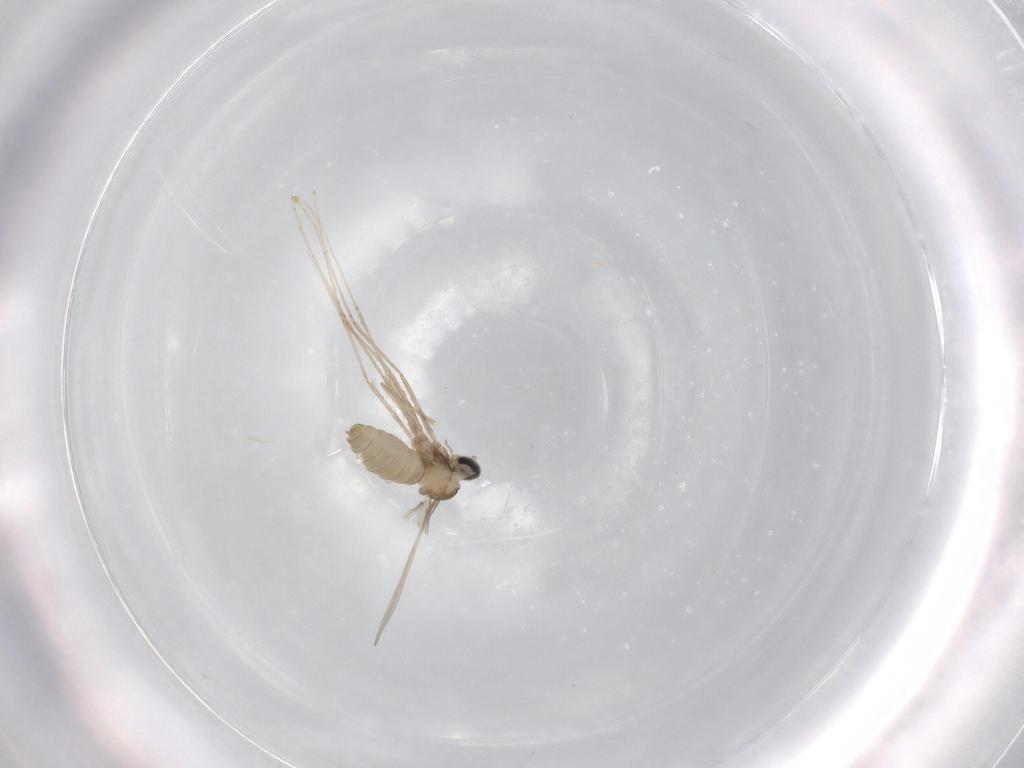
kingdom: Animalia
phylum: Arthropoda
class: Insecta
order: Diptera
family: Cecidomyiidae
